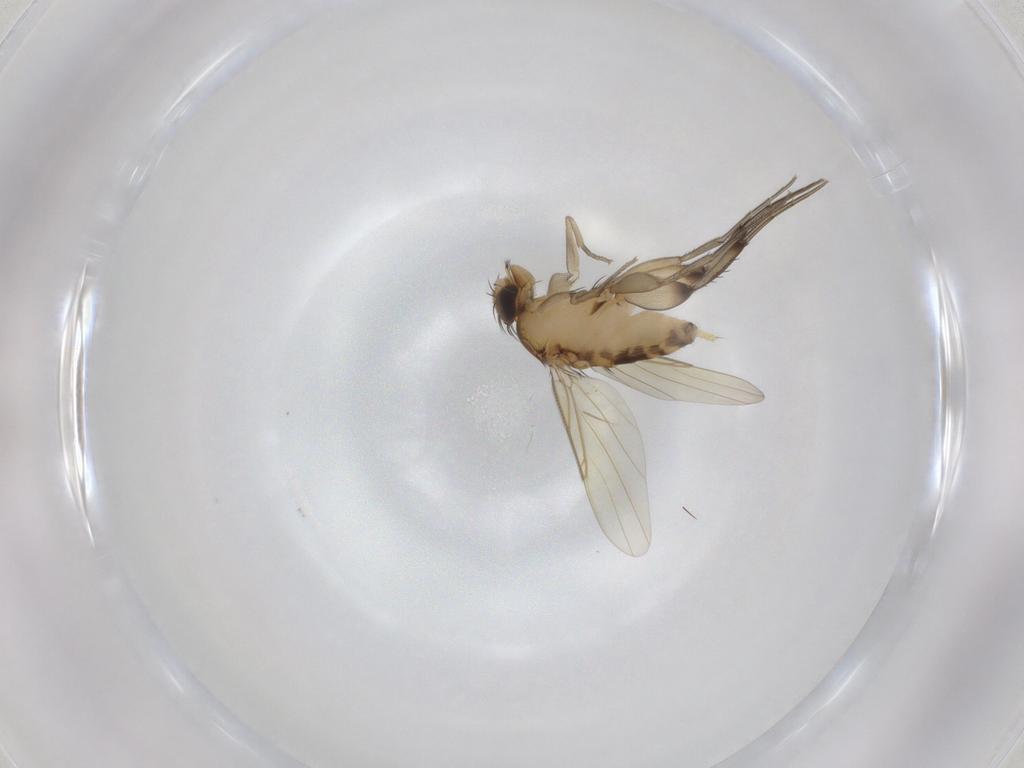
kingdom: Animalia
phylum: Arthropoda
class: Insecta
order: Diptera
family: Phoridae
